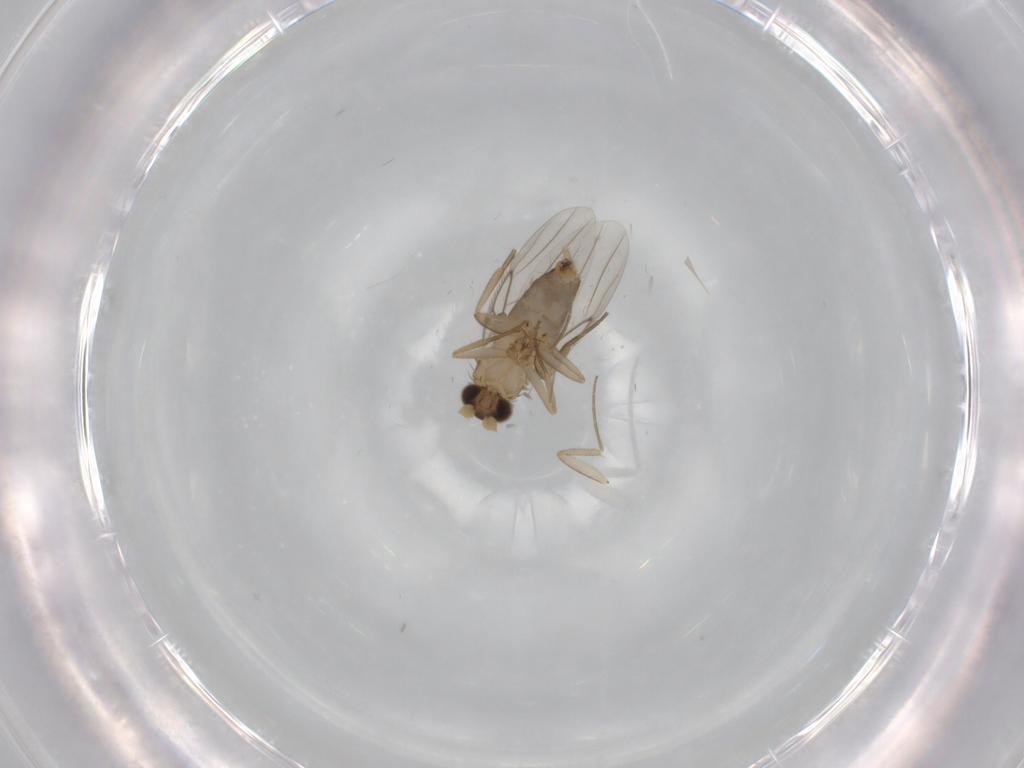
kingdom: Animalia
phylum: Arthropoda
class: Insecta
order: Diptera
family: Phoridae
